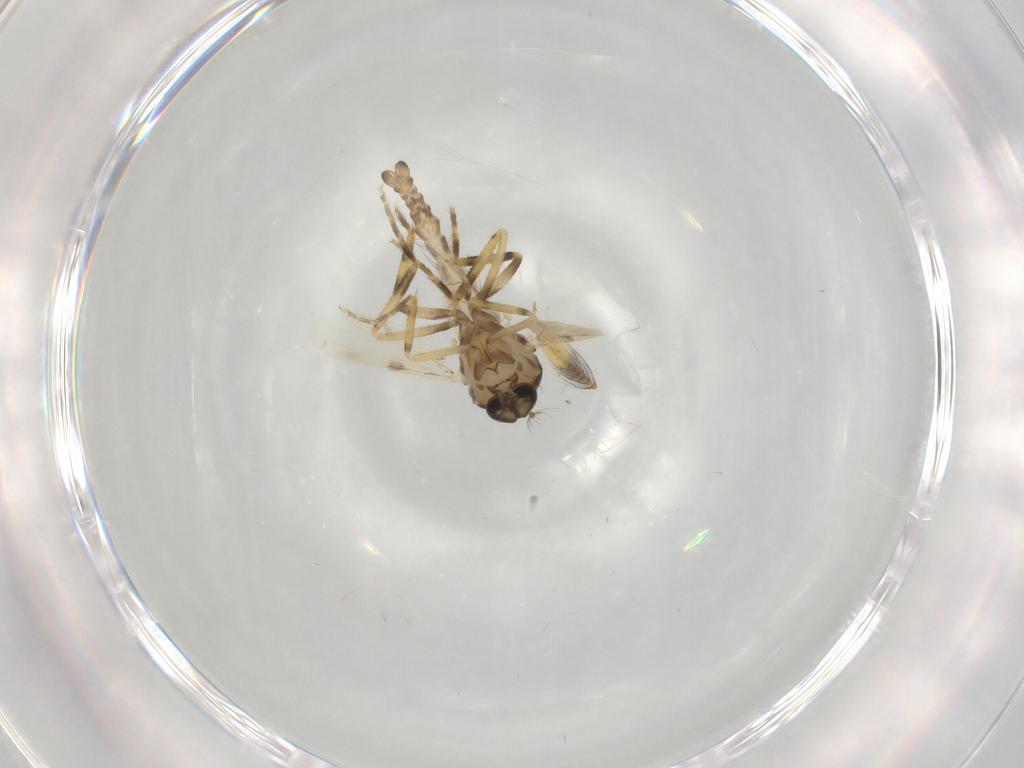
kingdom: Animalia
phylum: Arthropoda
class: Insecta
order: Diptera
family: Ceratopogonidae
